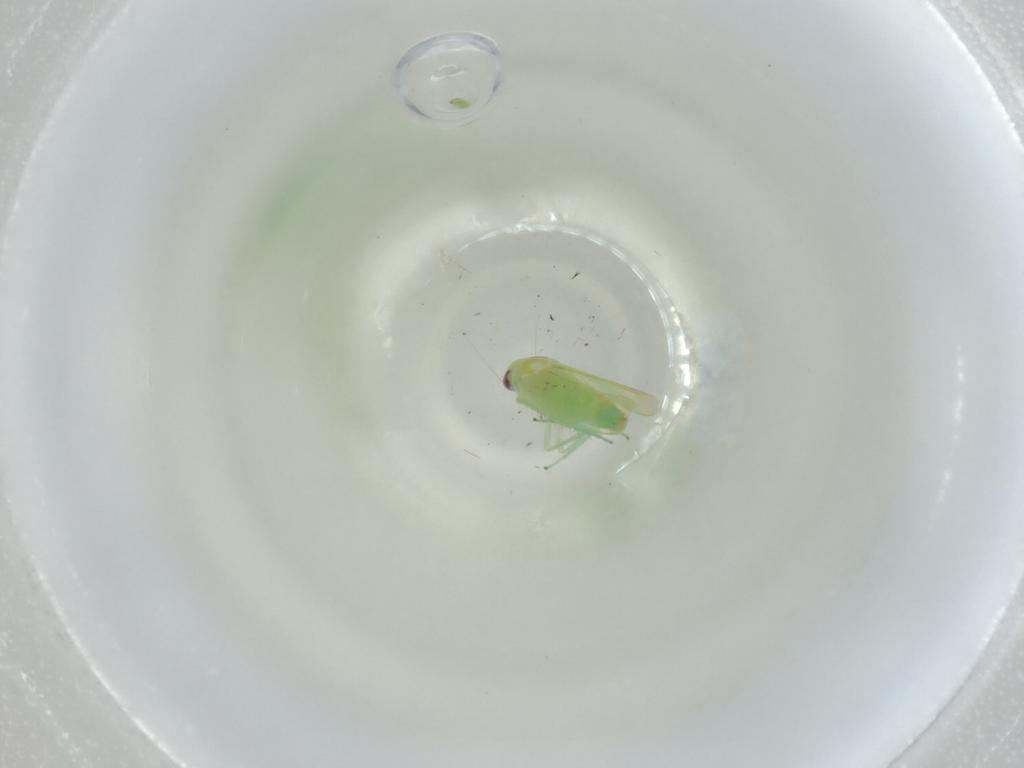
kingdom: Animalia
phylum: Arthropoda
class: Insecta
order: Hemiptera
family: Cicadellidae
